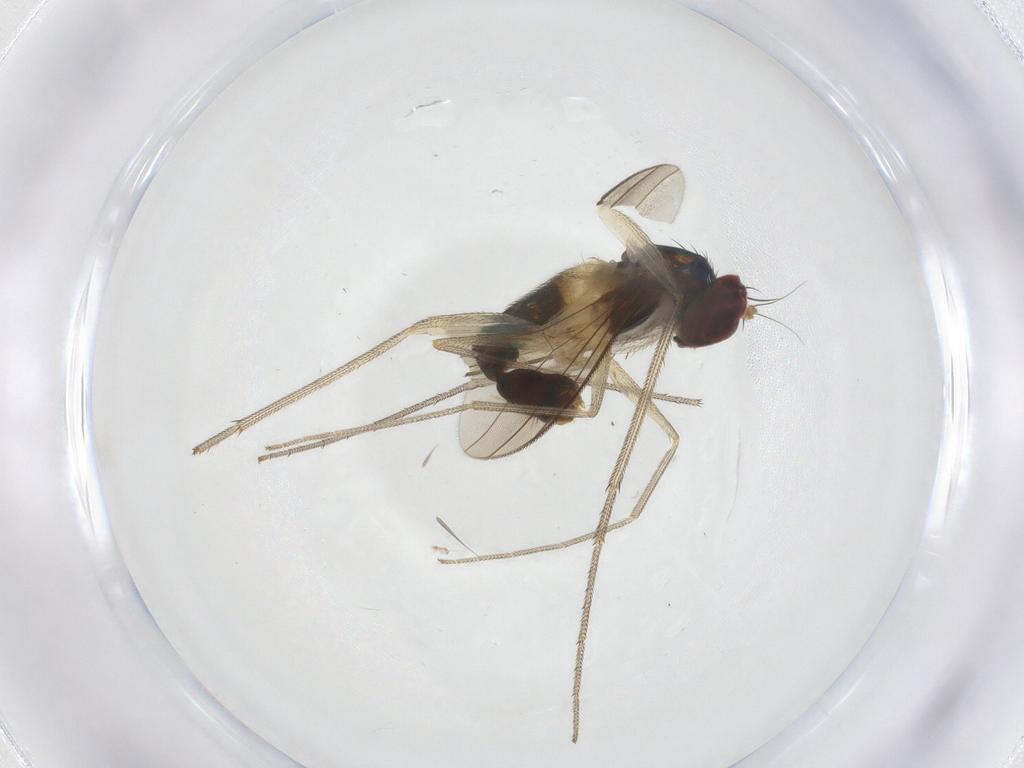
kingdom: Animalia
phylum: Arthropoda
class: Insecta
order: Diptera
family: Dolichopodidae
